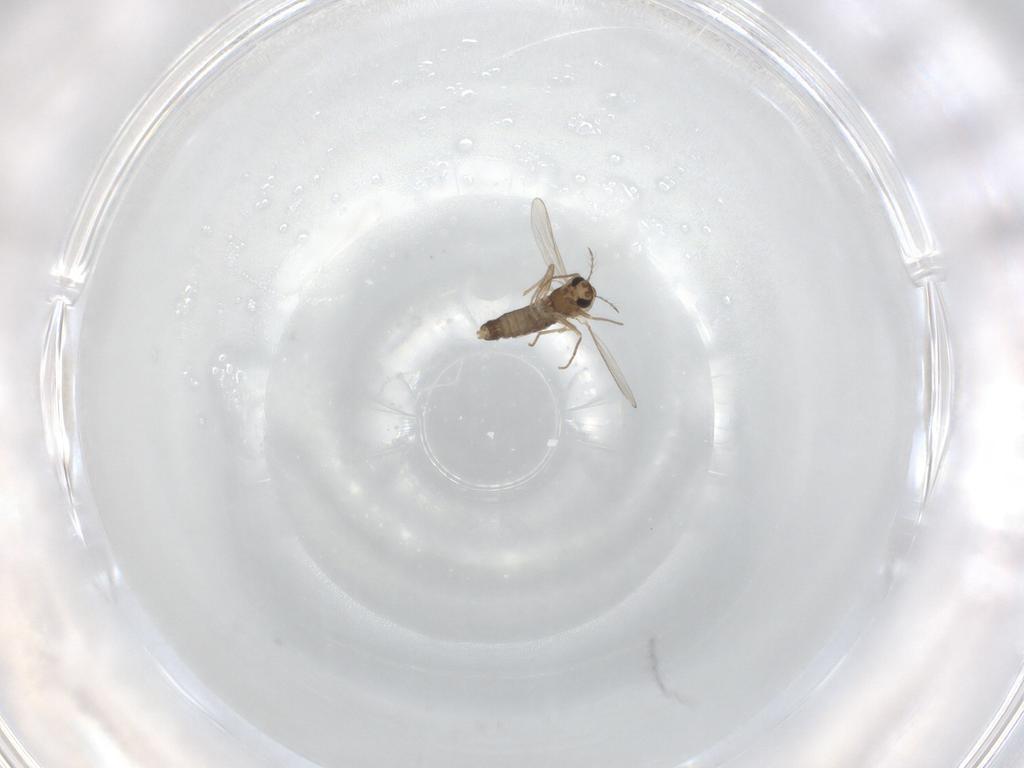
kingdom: Animalia
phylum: Arthropoda
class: Insecta
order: Diptera
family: Chironomidae
